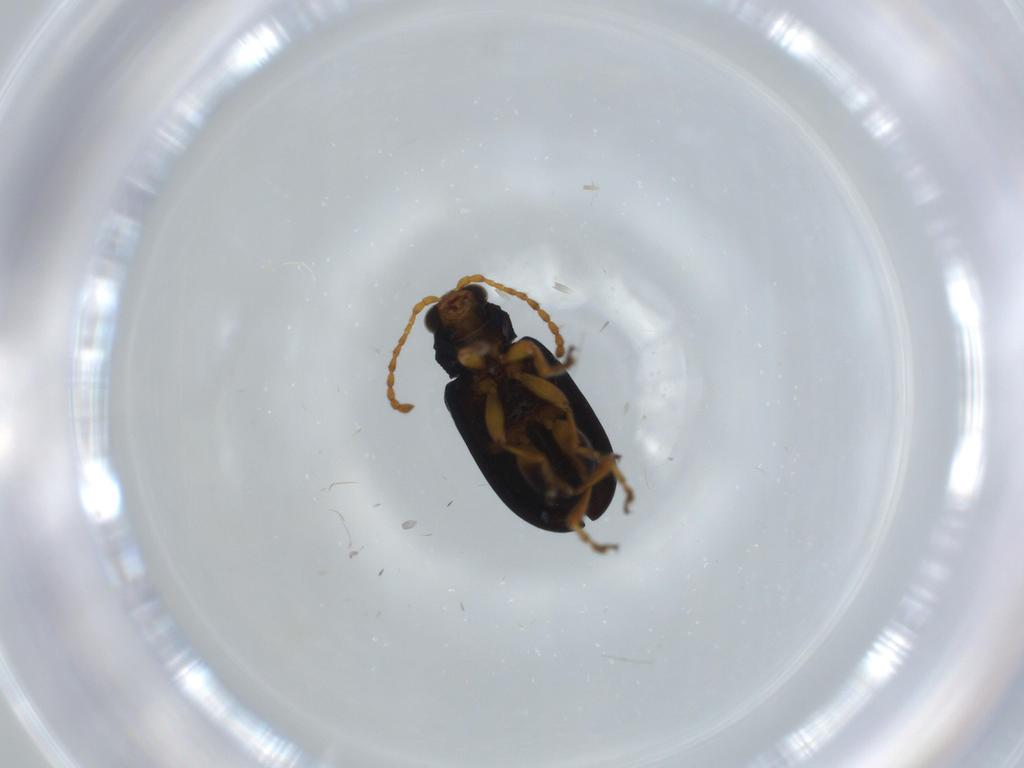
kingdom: Animalia
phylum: Arthropoda
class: Insecta
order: Coleoptera
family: Chrysomelidae
